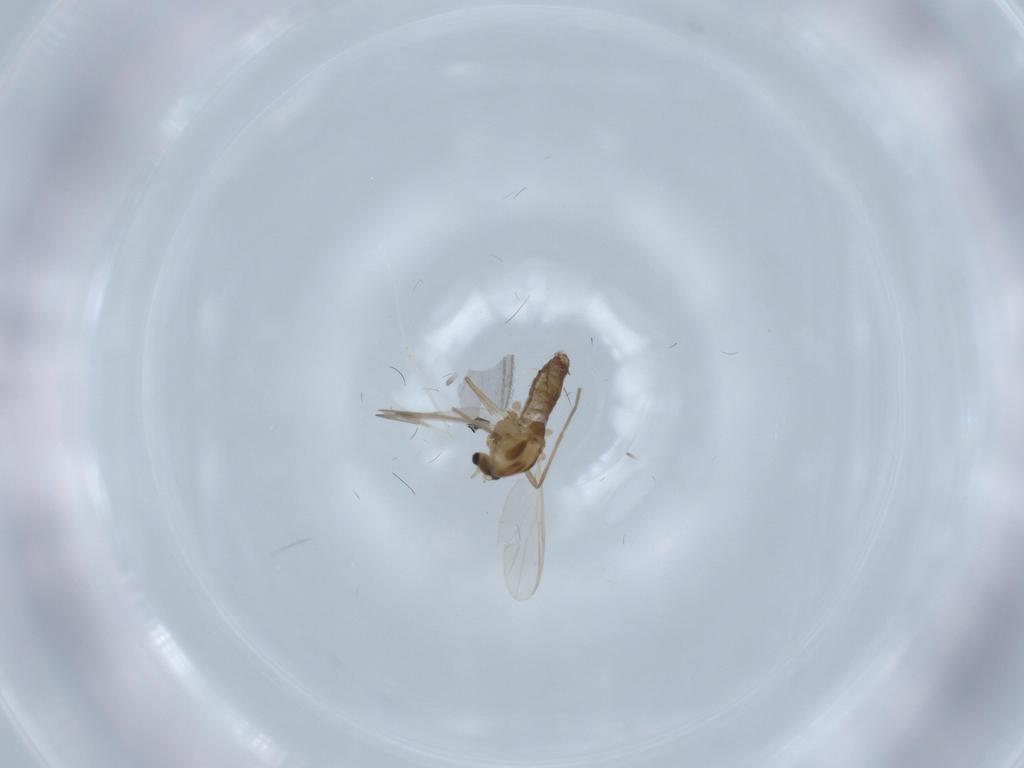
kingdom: Animalia
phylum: Arthropoda
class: Insecta
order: Diptera
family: Chironomidae
